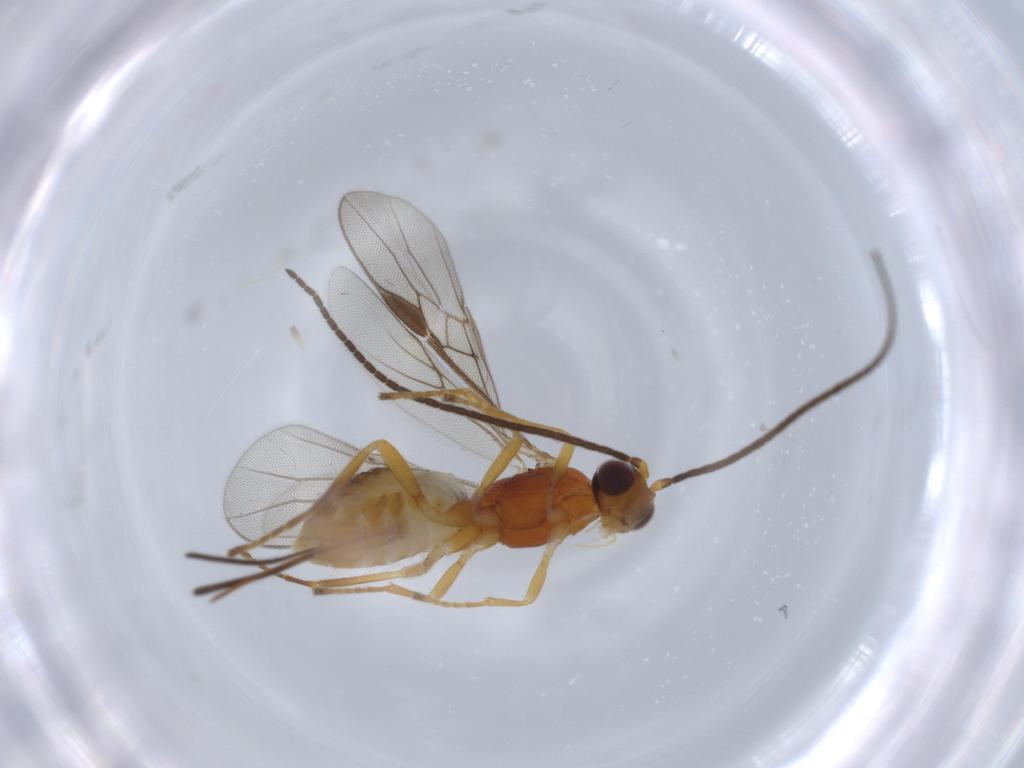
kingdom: Animalia
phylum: Arthropoda
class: Insecta
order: Hymenoptera
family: Braconidae
